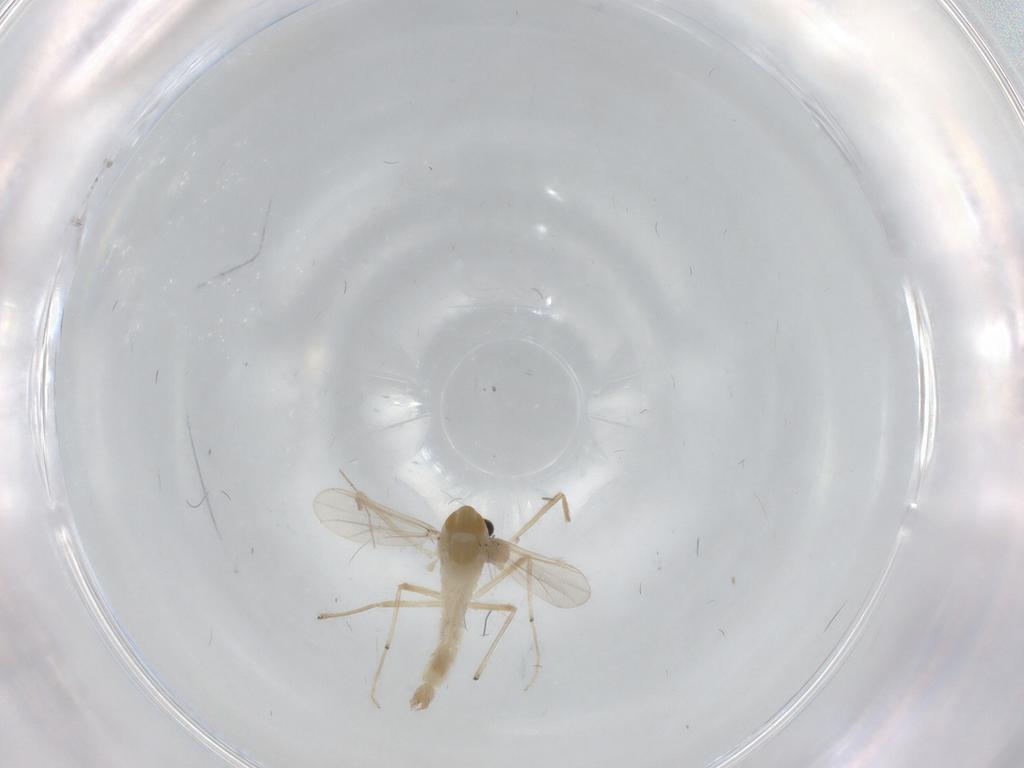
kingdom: Animalia
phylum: Arthropoda
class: Insecta
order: Diptera
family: Chironomidae
